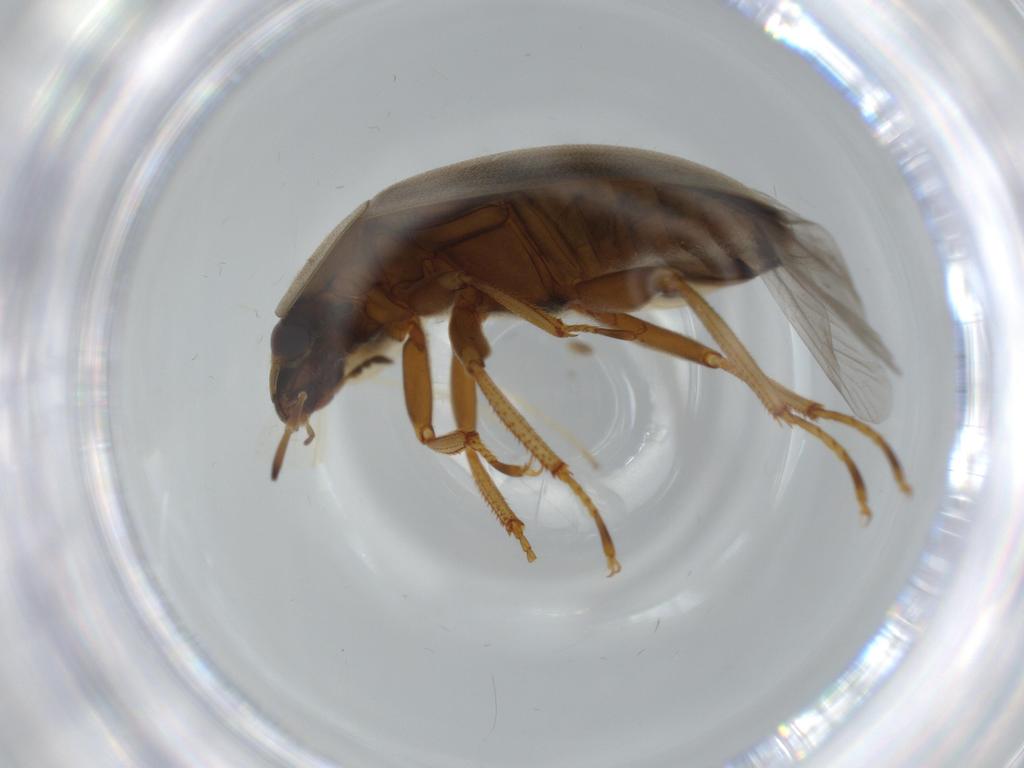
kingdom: Animalia
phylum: Arthropoda
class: Insecta
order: Coleoptera
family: Hydrophilidae
